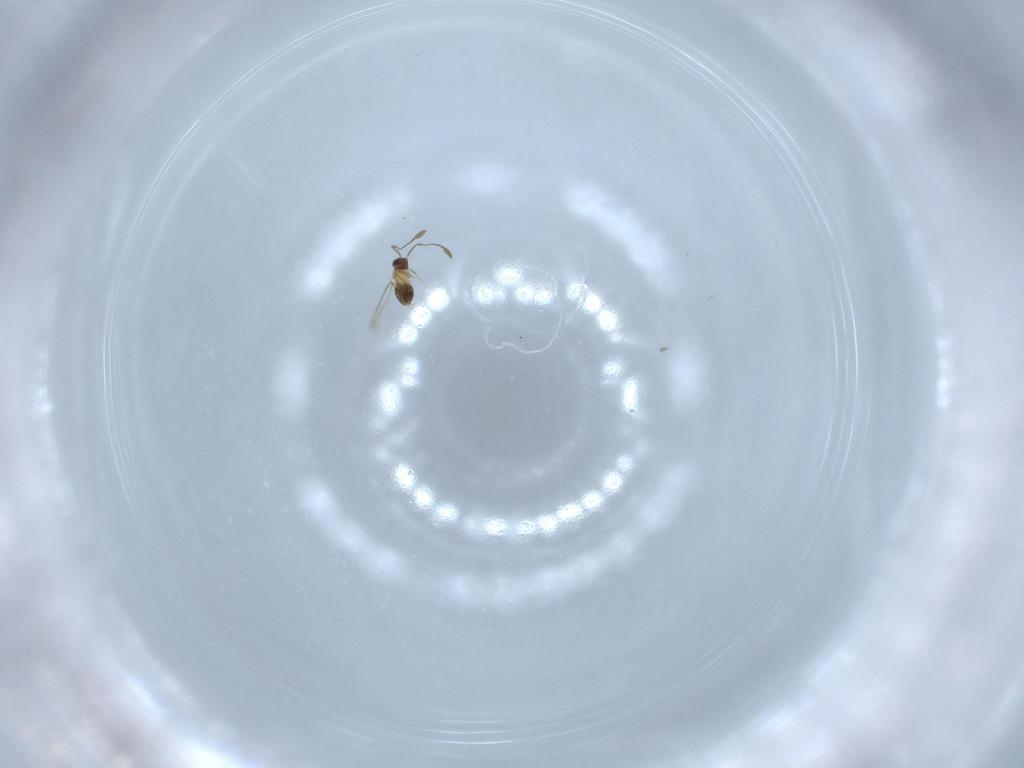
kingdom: Animalia
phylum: Arthropoda
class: Insecta
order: Hymenoptera
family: Mymaridae
